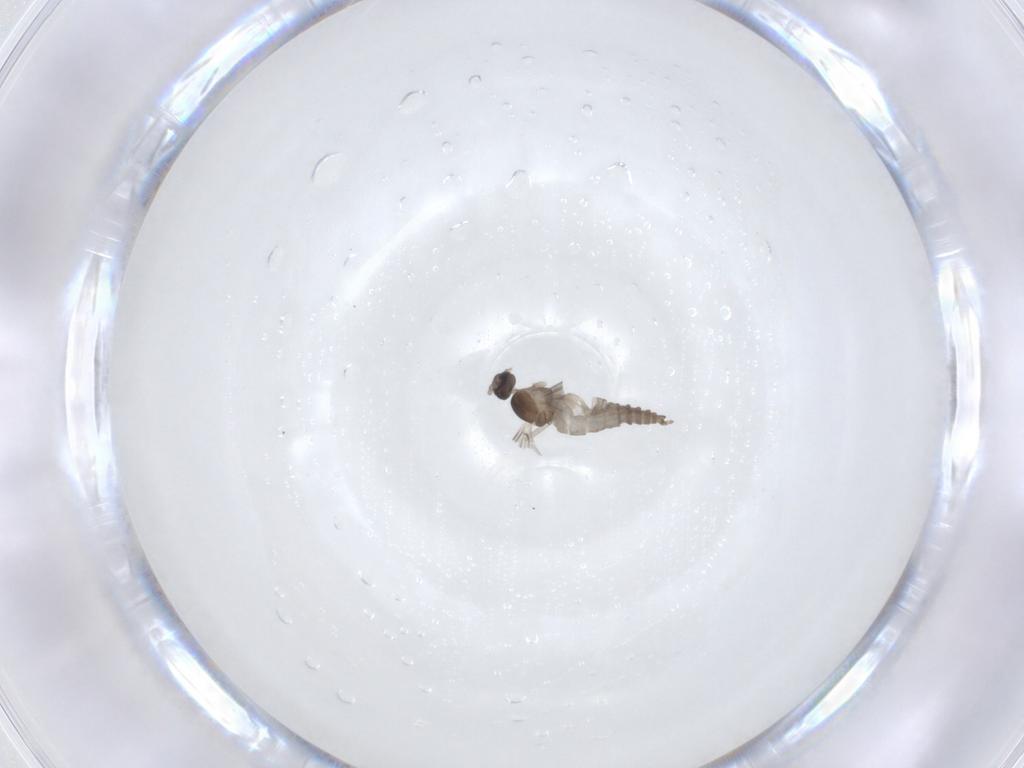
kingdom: Animalia
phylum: Arthropoda
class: Insecta
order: Diptera
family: Cecidomyiidae
